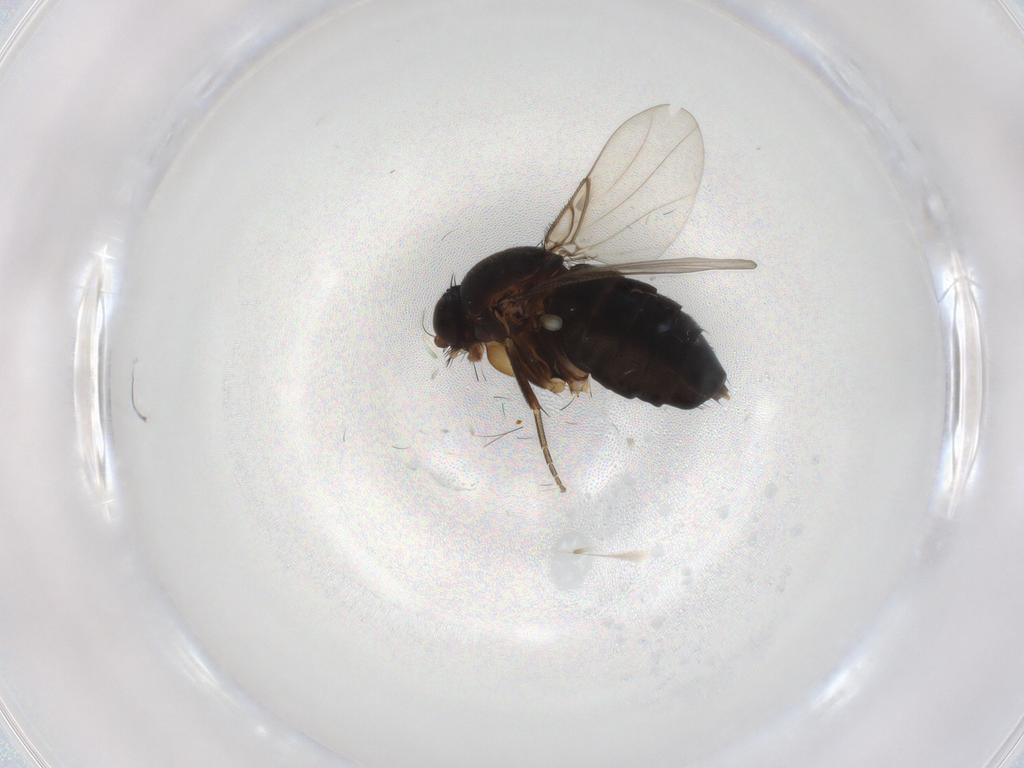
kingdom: Animalia
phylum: Arthropoda
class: Insecta
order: Diptera
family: Phoridae
